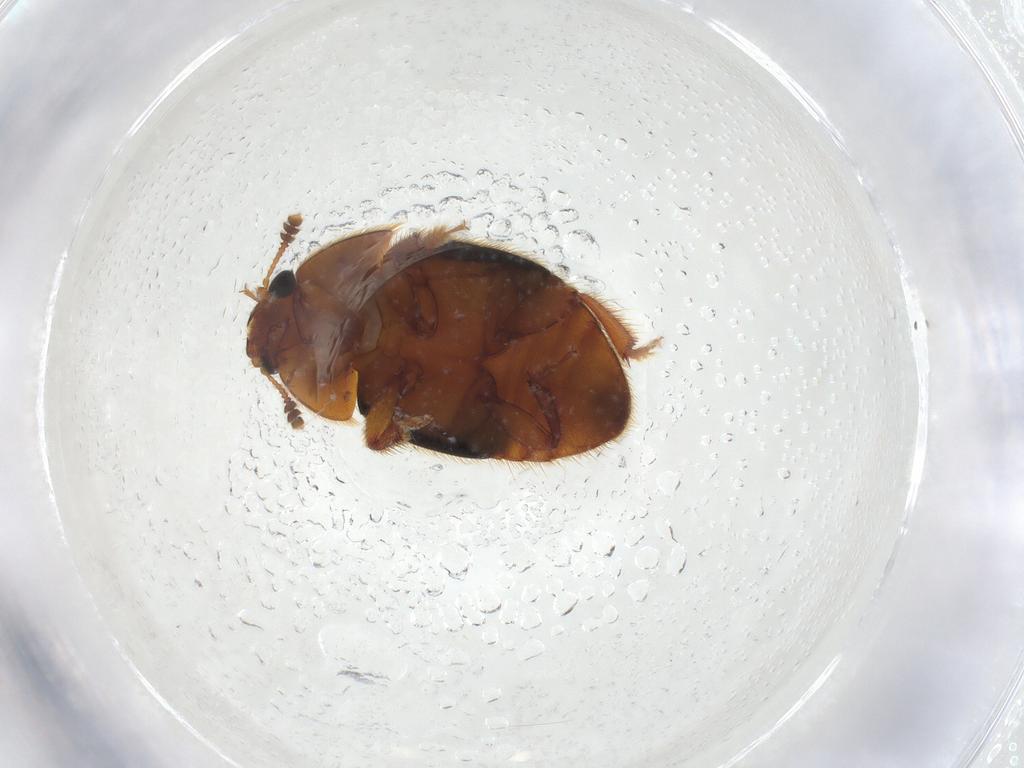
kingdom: Animalia
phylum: Arthropoda
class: Insecta
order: Coleoptera
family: Nitidulidae
